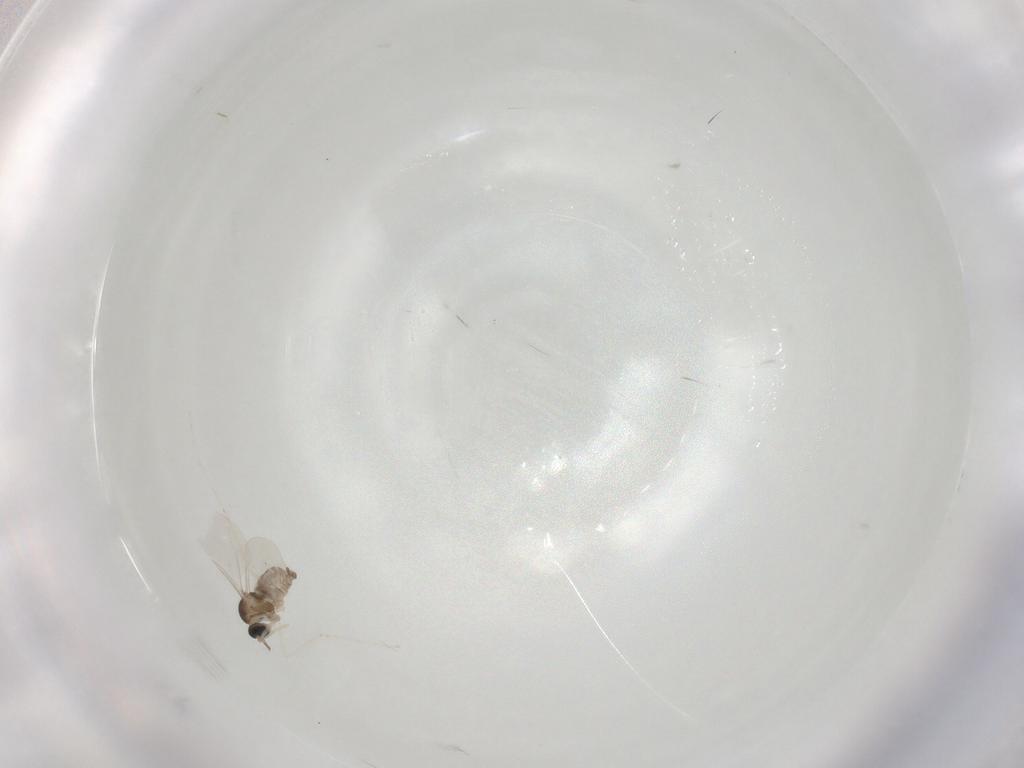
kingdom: Animalia
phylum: Arthropoda
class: Insecta
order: Diptera
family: Cecidomyiidae
